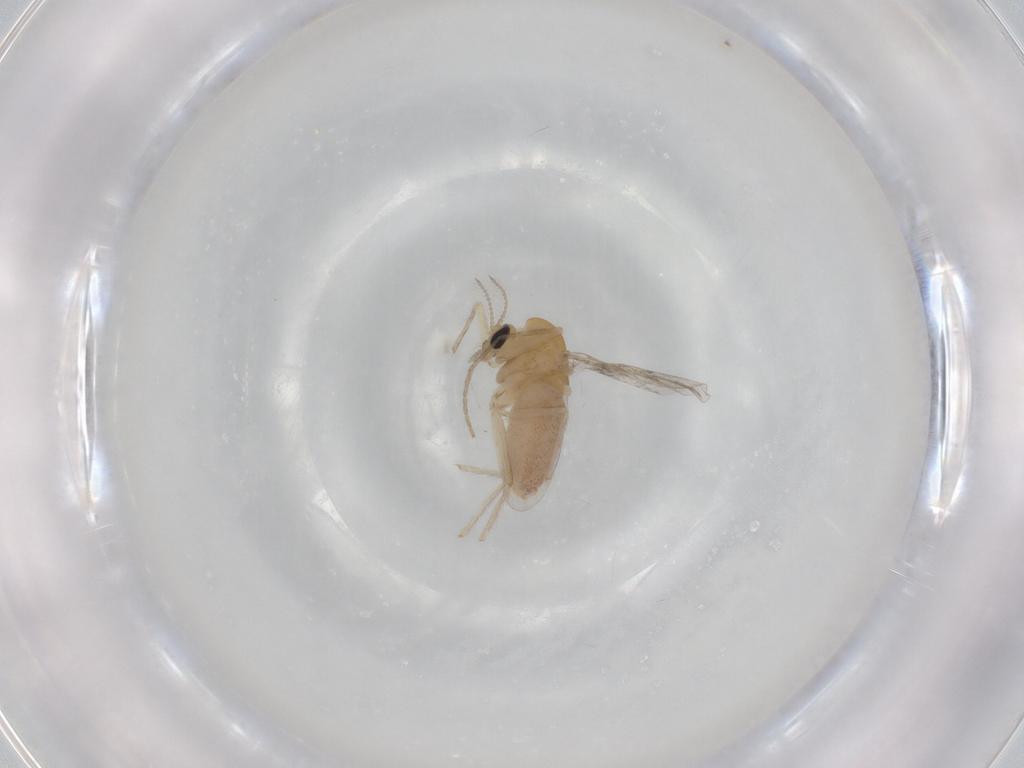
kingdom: Animalia
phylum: Arthropoda
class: Insecta
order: Diptera
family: Chironomidae
